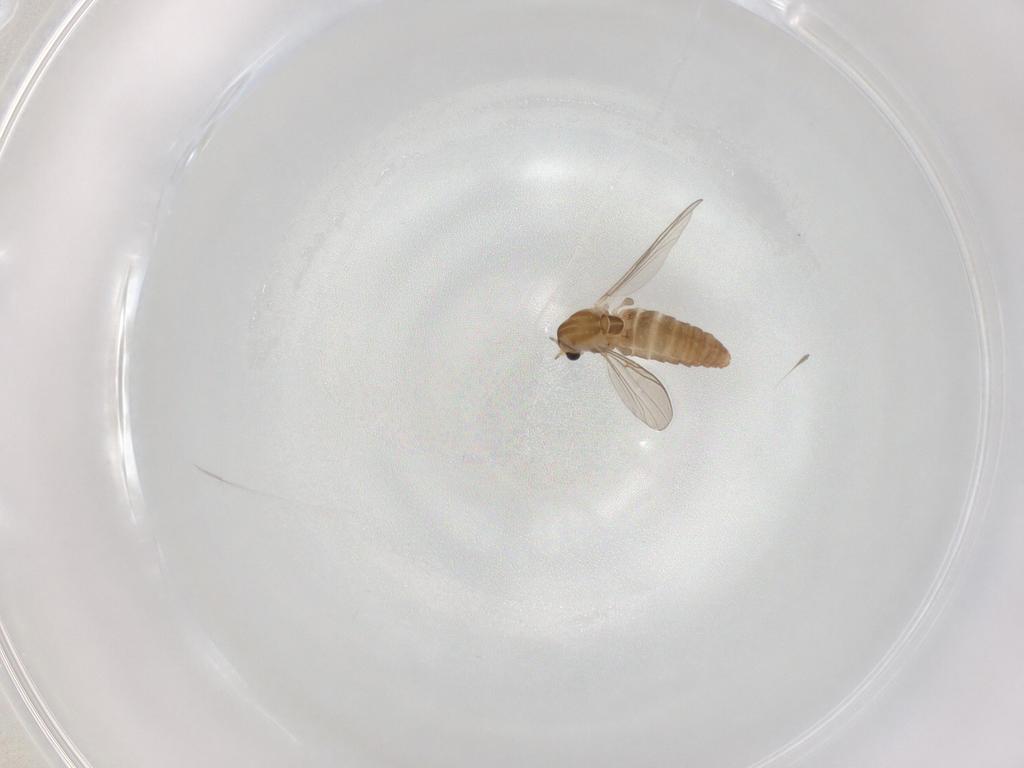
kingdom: Animalia
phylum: Arthropoda
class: Insecta
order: Diptera
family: Chironomidae
